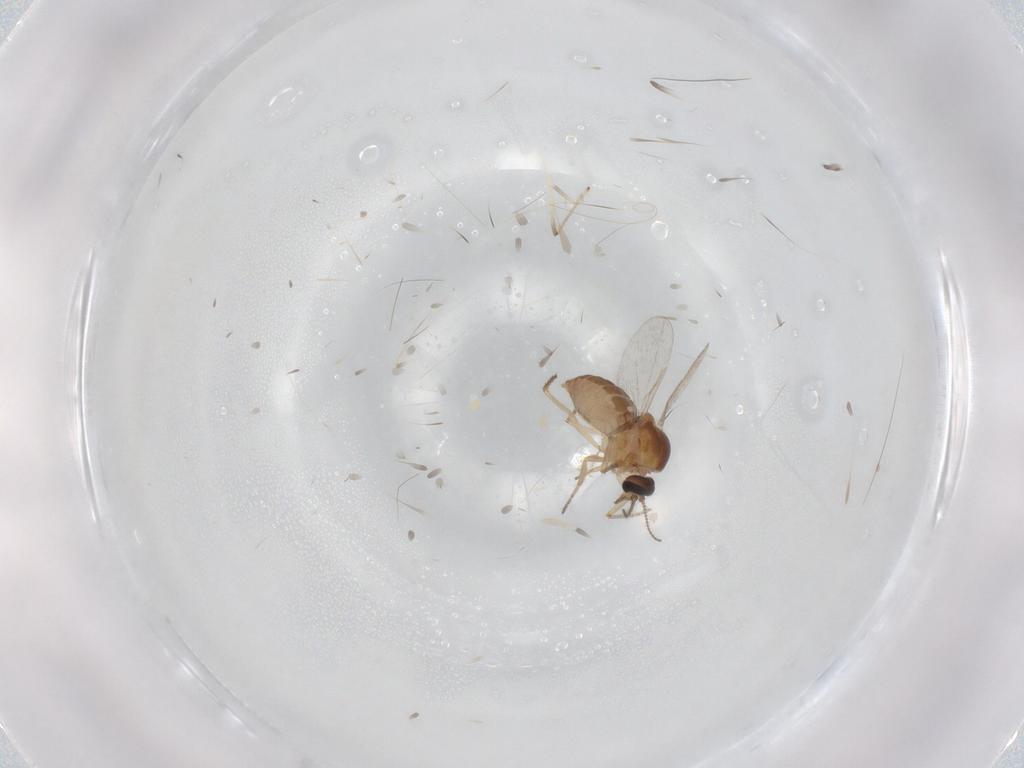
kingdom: Animalia
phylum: Arthropoda
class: Insecta
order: Diptera
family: Ceratopogonidae
